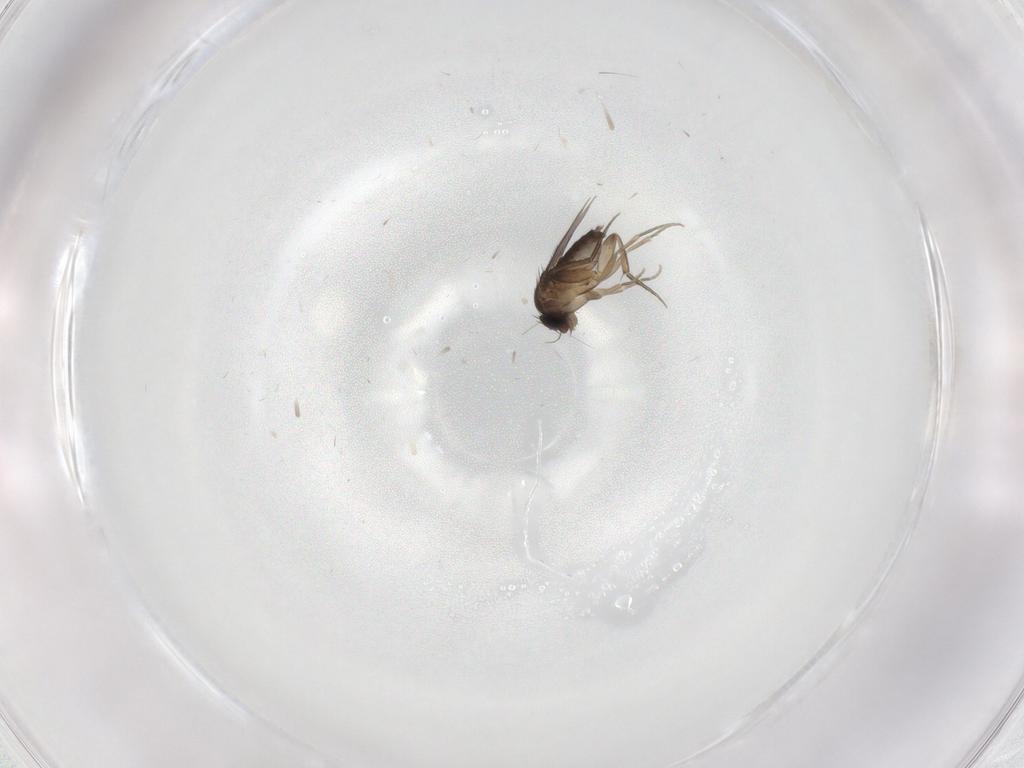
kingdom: Animalia
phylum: Arthropoda
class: Insecta
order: Diptera
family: Phoridae
